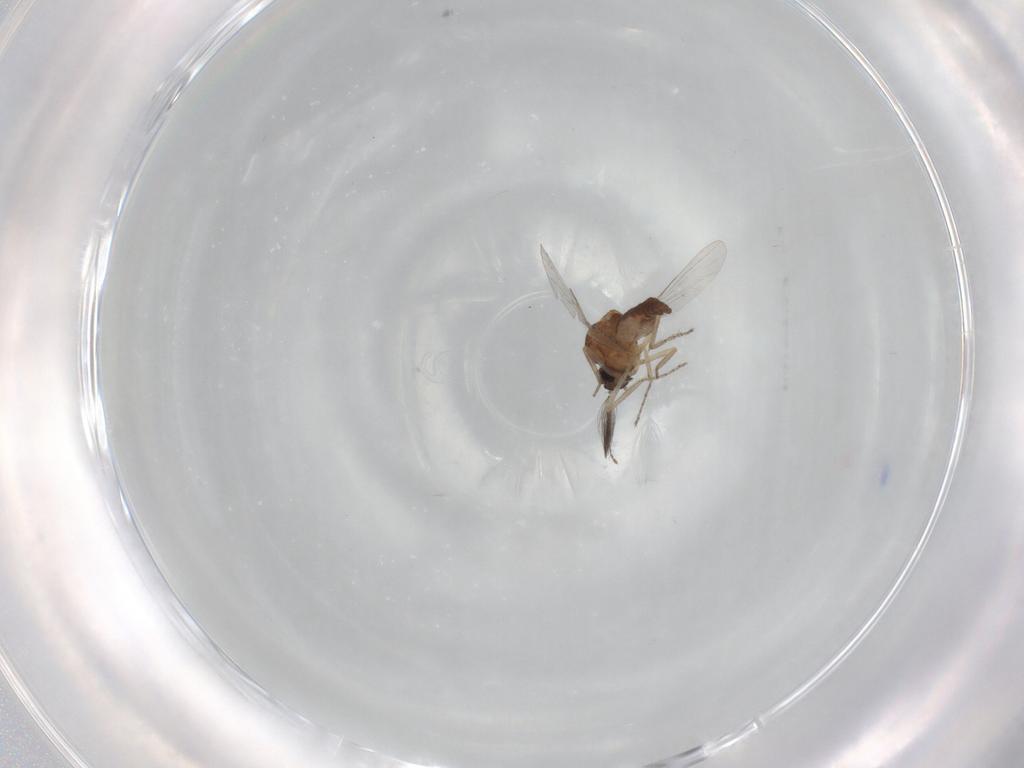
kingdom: Animalia
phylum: Arthropoda
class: Insecta
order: Diptera
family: Ceratopogonidae
